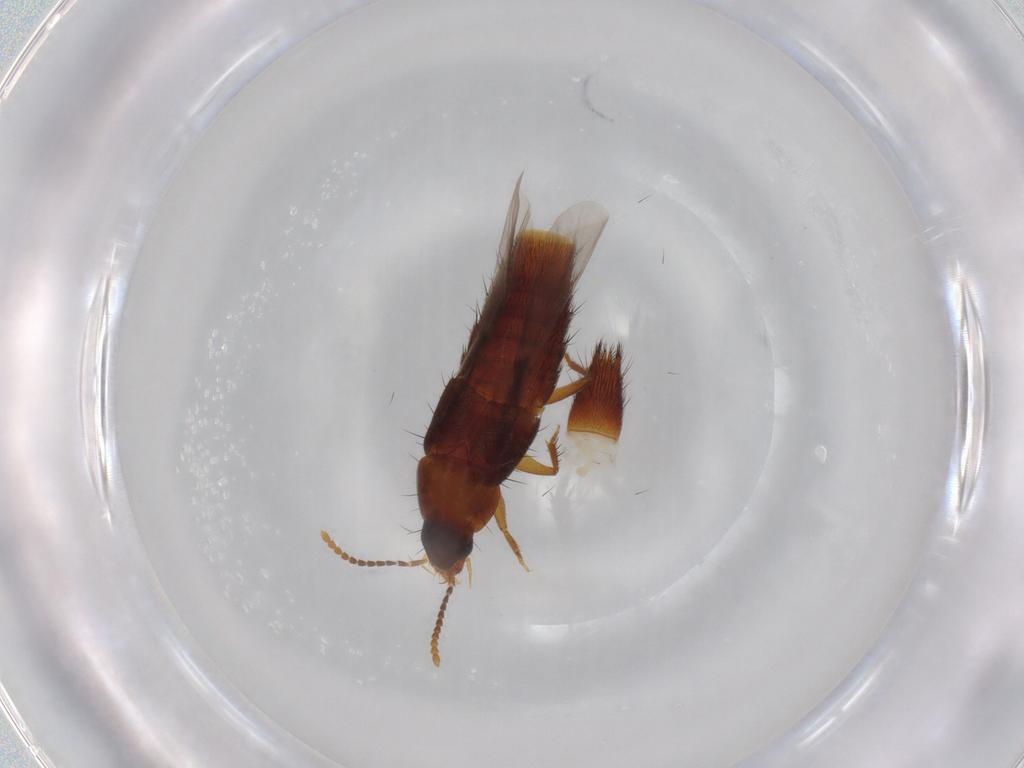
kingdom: Animalia
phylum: Arthropoda
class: Insecta
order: Coleoptera
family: Staphylinidae
